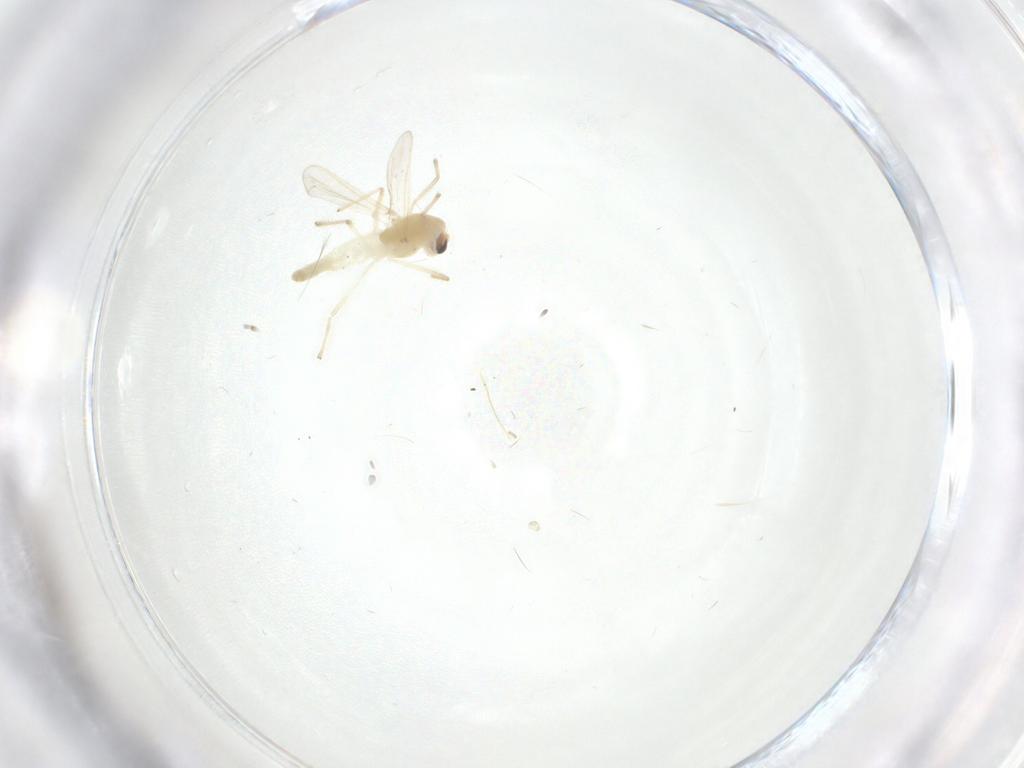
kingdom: Animalia
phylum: Arthropoda
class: Insecta
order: Diptera
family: Chironomidae
